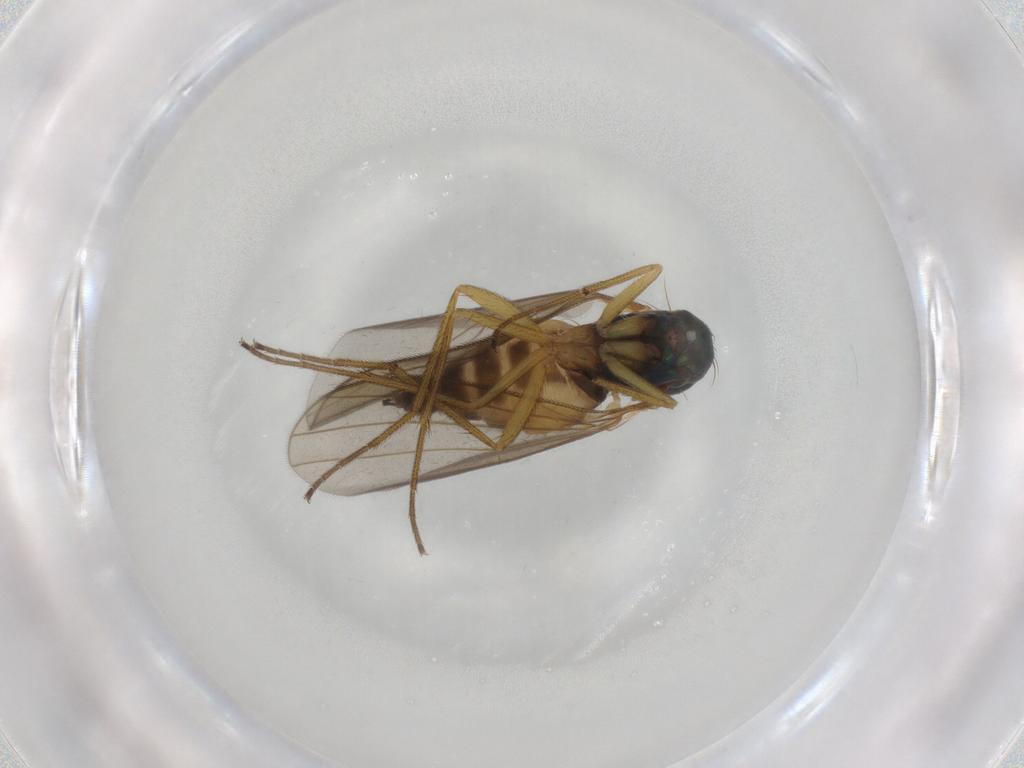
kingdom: Animalia
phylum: Arthropoda
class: Insecta
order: Diptera
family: Dolichopodidae
